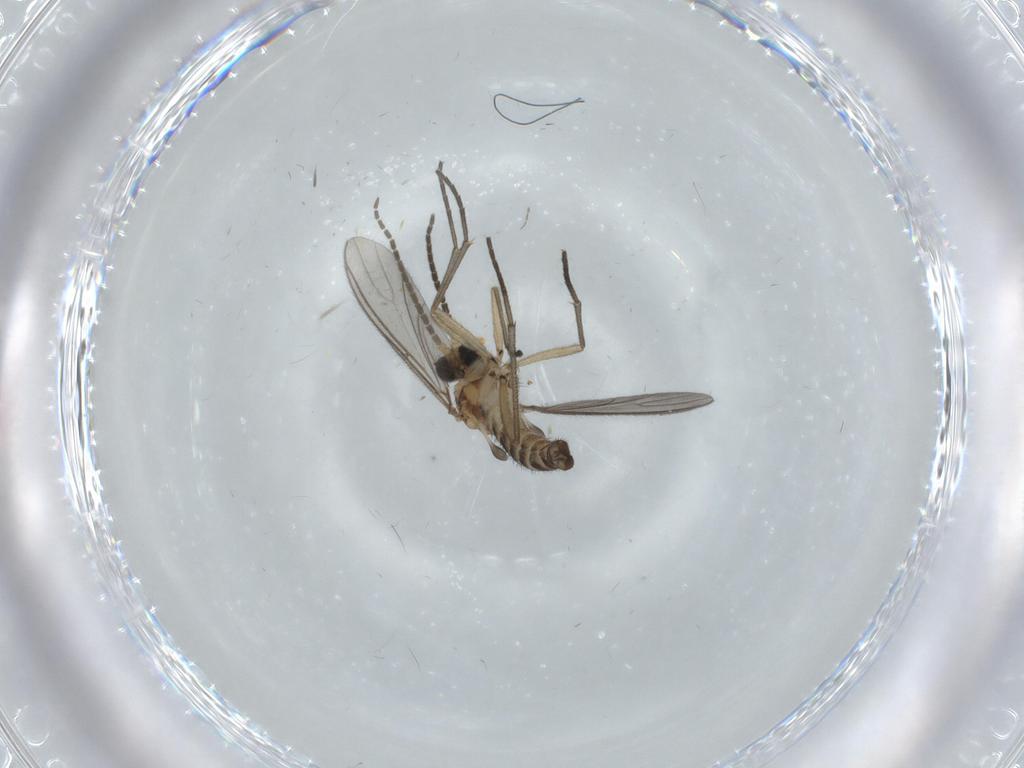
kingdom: Animalia
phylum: Arthropoda
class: Insecta
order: Diptera
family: Sciaridae
